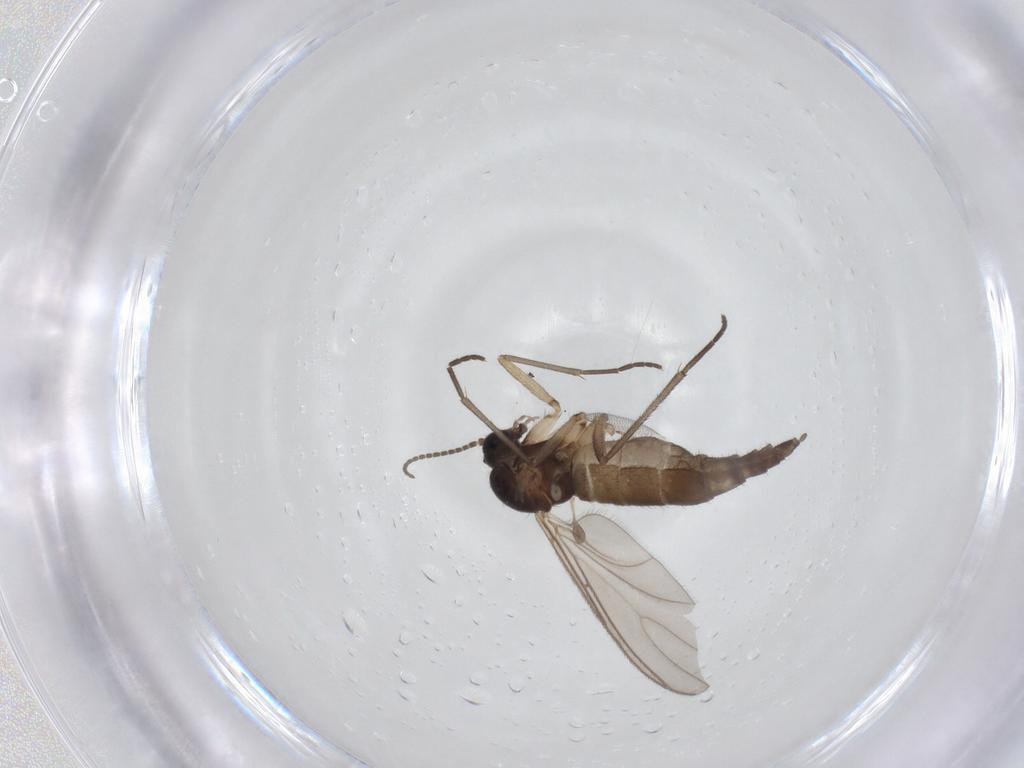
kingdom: Animalia
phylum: Arthropoda
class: Insecta
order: Diptera
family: Sciaridae
